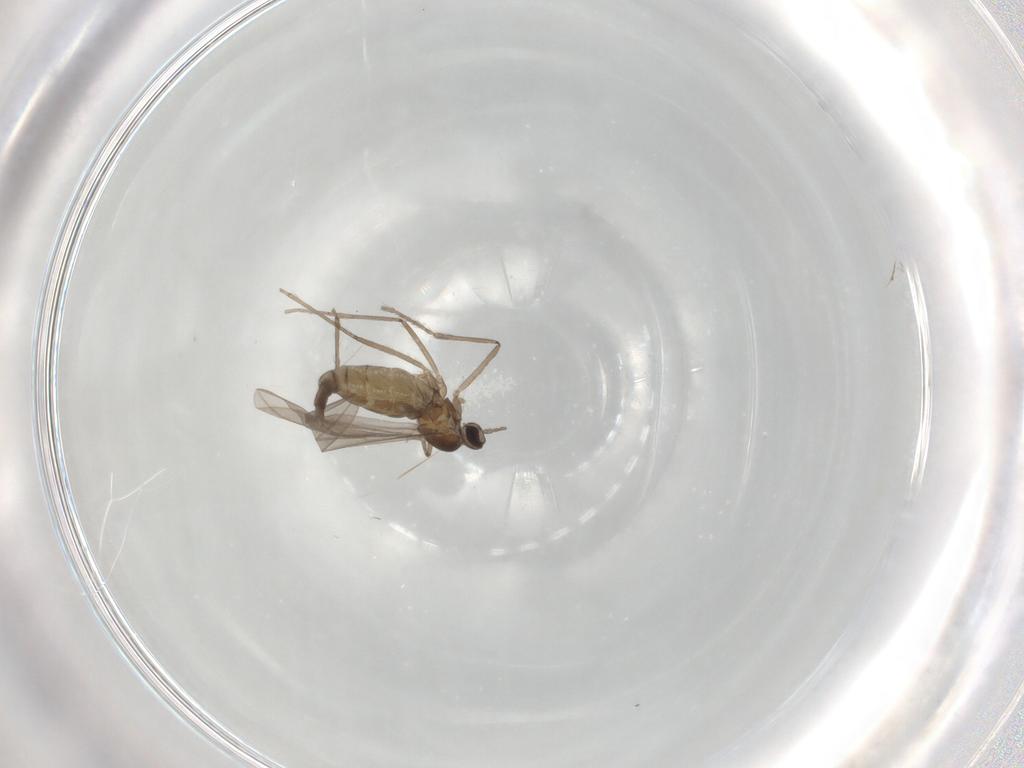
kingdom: Animalia
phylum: Arthropoda
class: Insecta
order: Diptera
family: Cecidomyiidae
